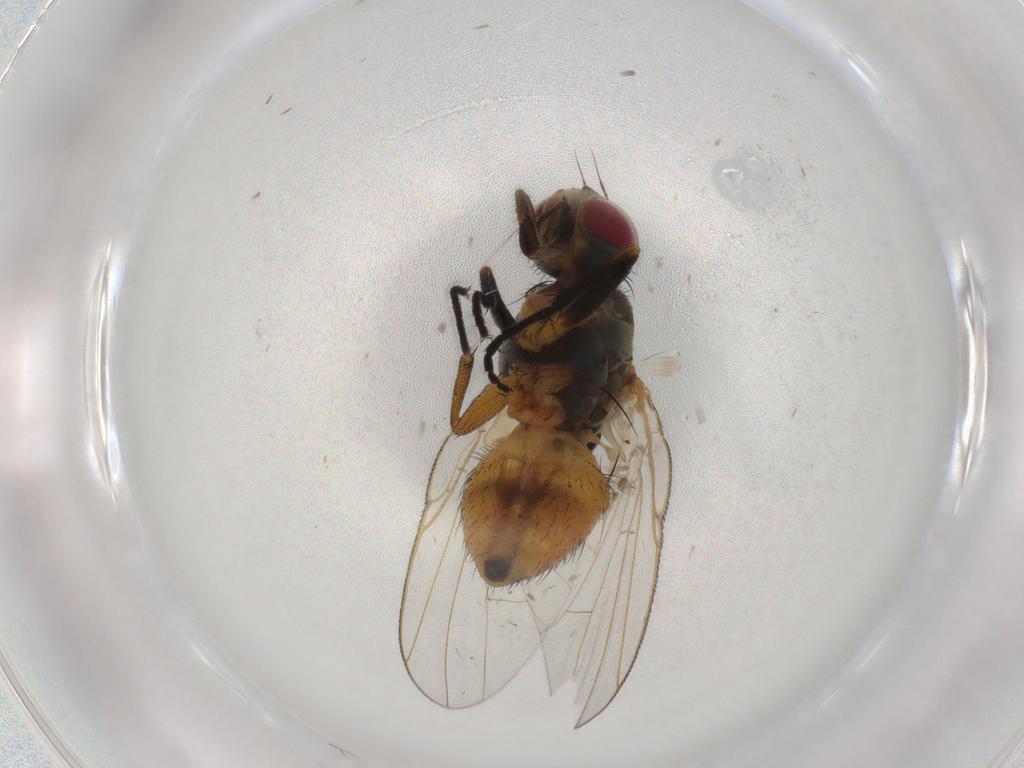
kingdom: Animalia
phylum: Arthropoda
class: Insecta
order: Diptera
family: Muscidae
